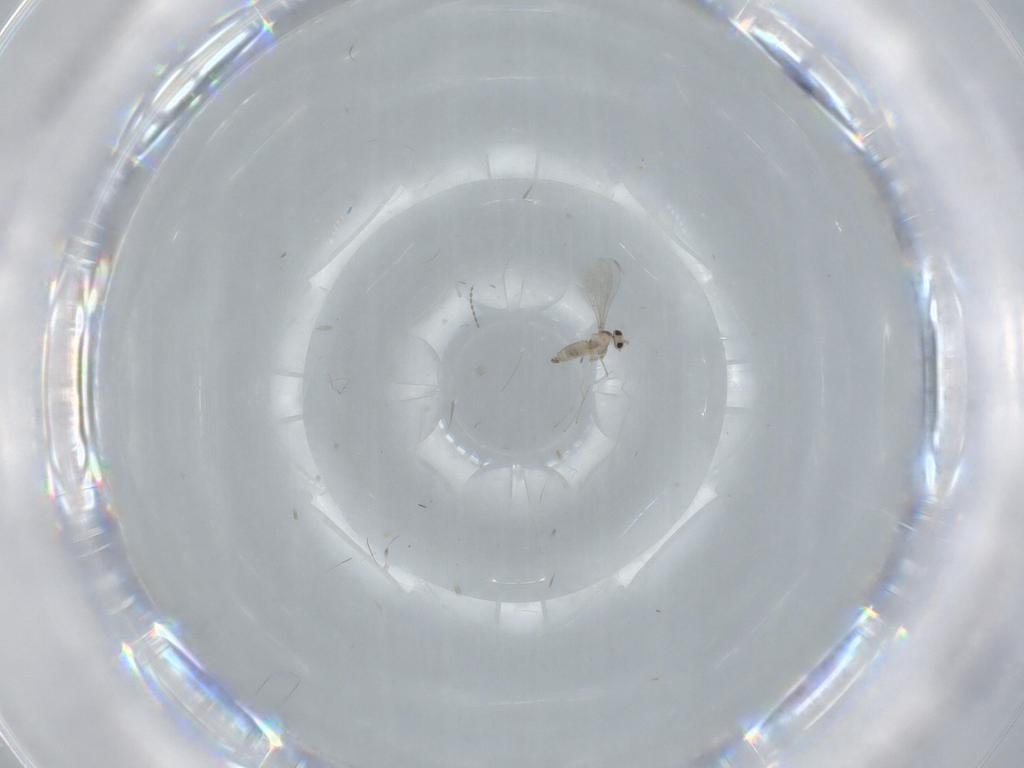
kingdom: Animalia
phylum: Arthropoda
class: Insecta
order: Diptera
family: Cecidomyiidae
